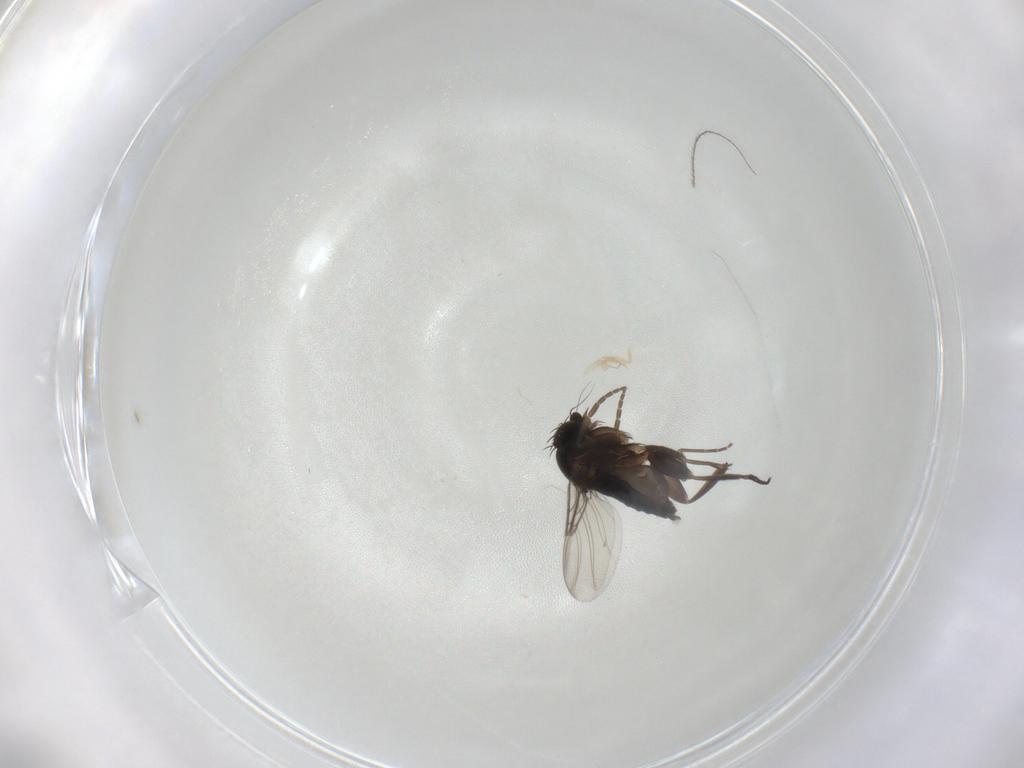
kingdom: Animalia
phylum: Arthropoda
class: Insecta
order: Diptera
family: Phoridae
